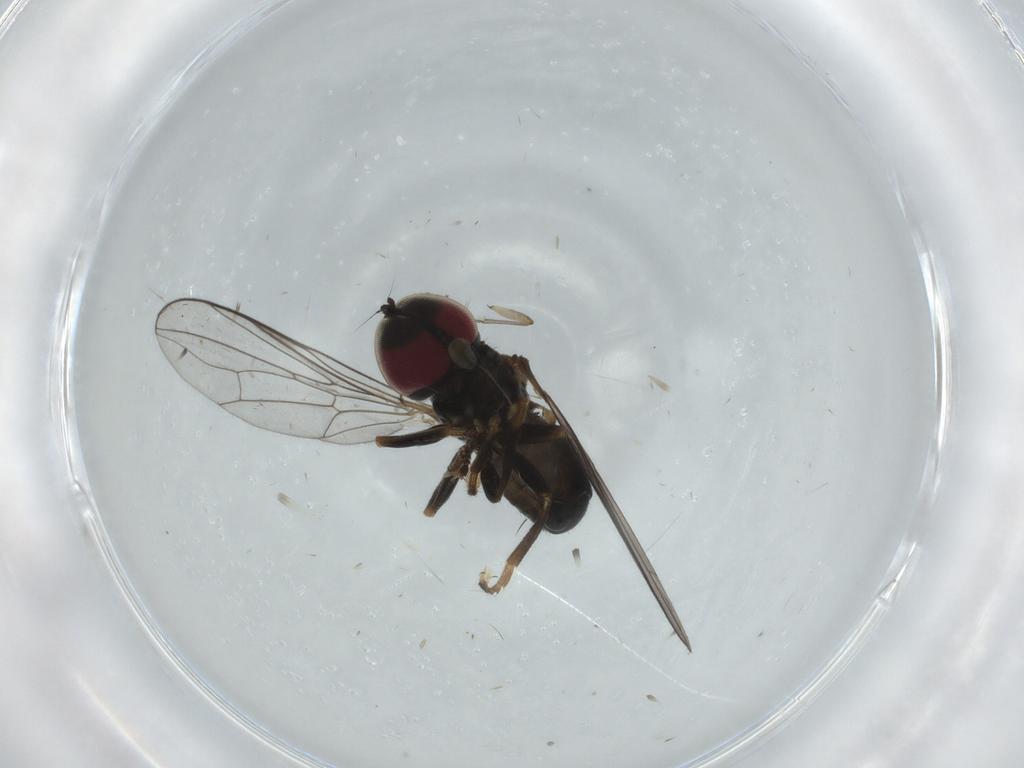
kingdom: Animalia
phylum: Arthropoda
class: Insecta
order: Diptera
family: Pipunculidae
